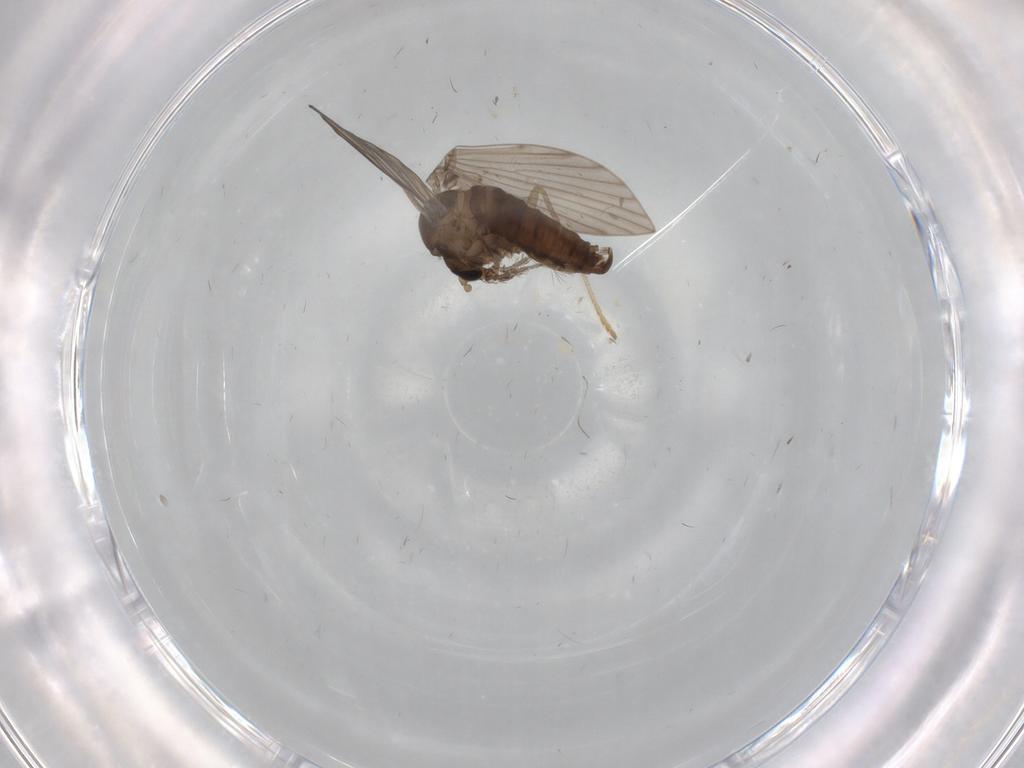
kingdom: Animalia
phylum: Arthropoda
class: Insecta
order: Diptera
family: Chironomidae
